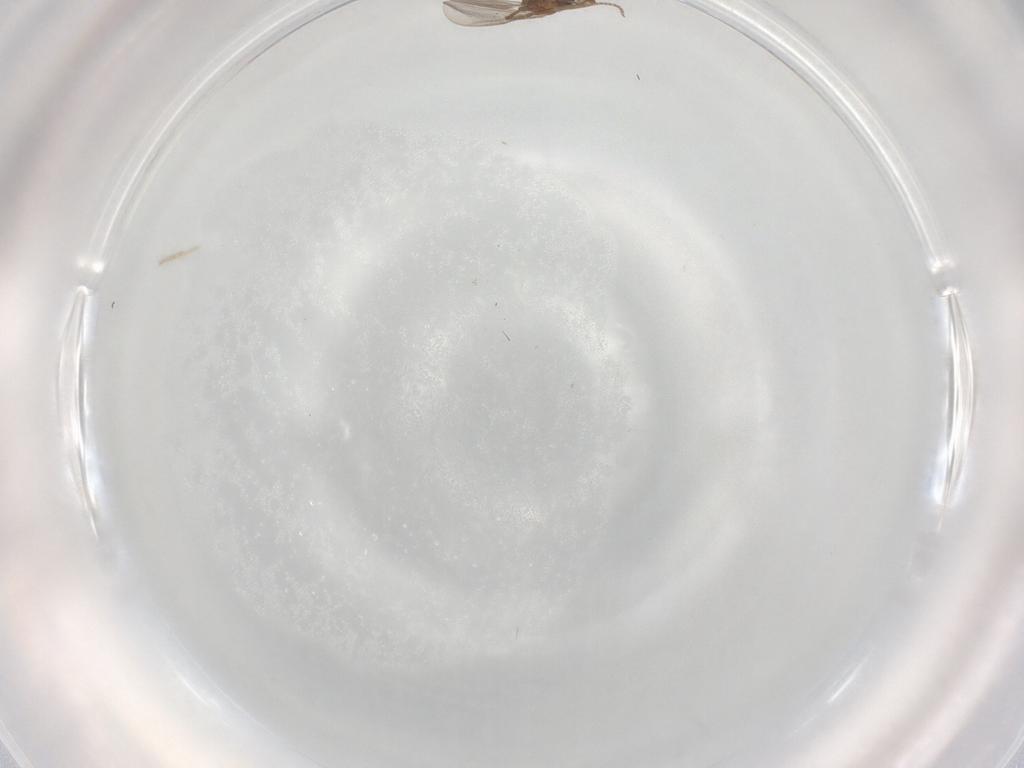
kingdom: Animalia
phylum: Arthropoda
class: Insecta
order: Diptera
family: Phoridae
